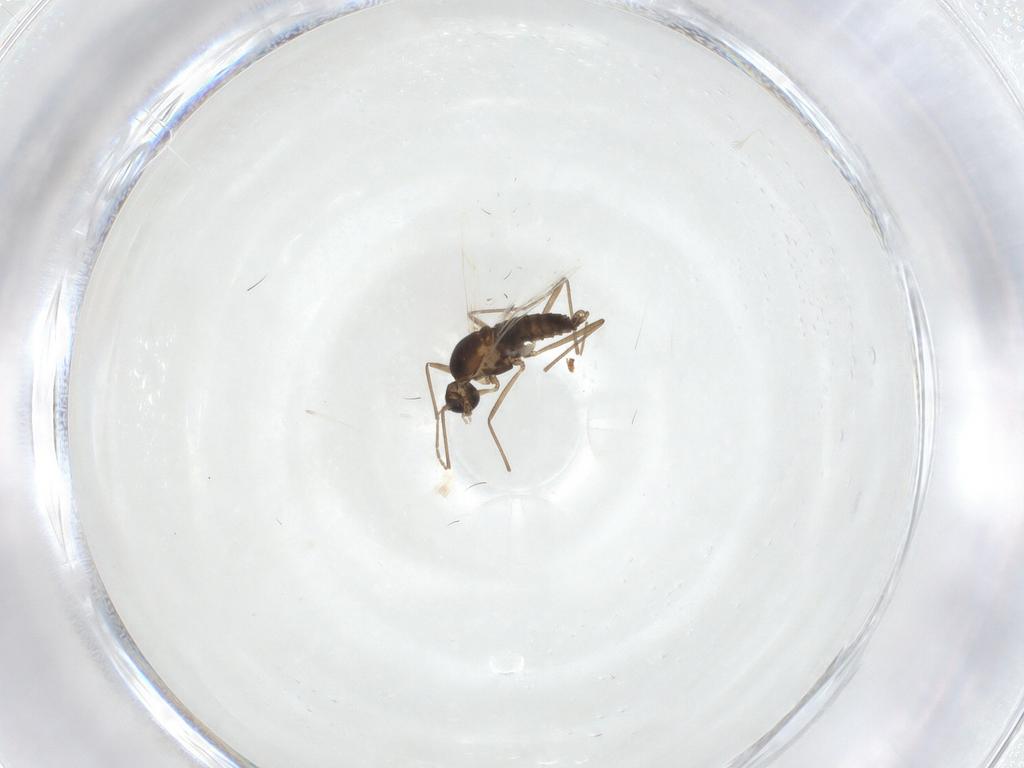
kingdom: Animalia
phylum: Arthropoda
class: Insecta
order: Diptera
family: Cecidomyiidae
